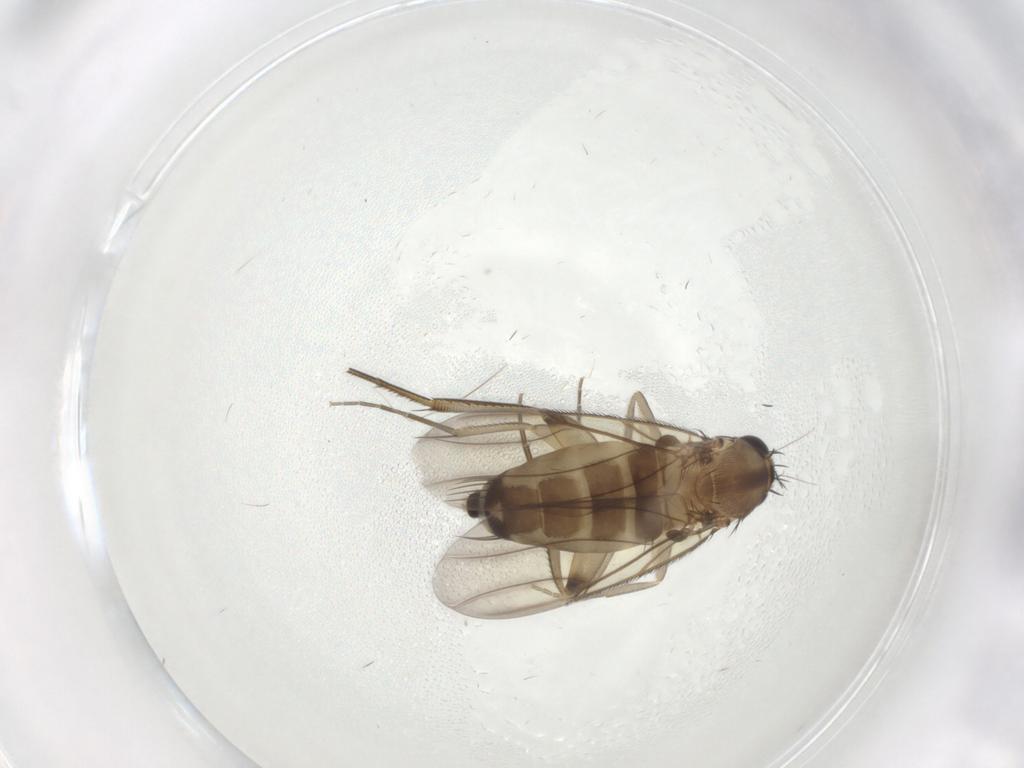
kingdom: Animalia
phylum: Arthropoda
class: Insecta
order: Diptera
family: Phoridae
